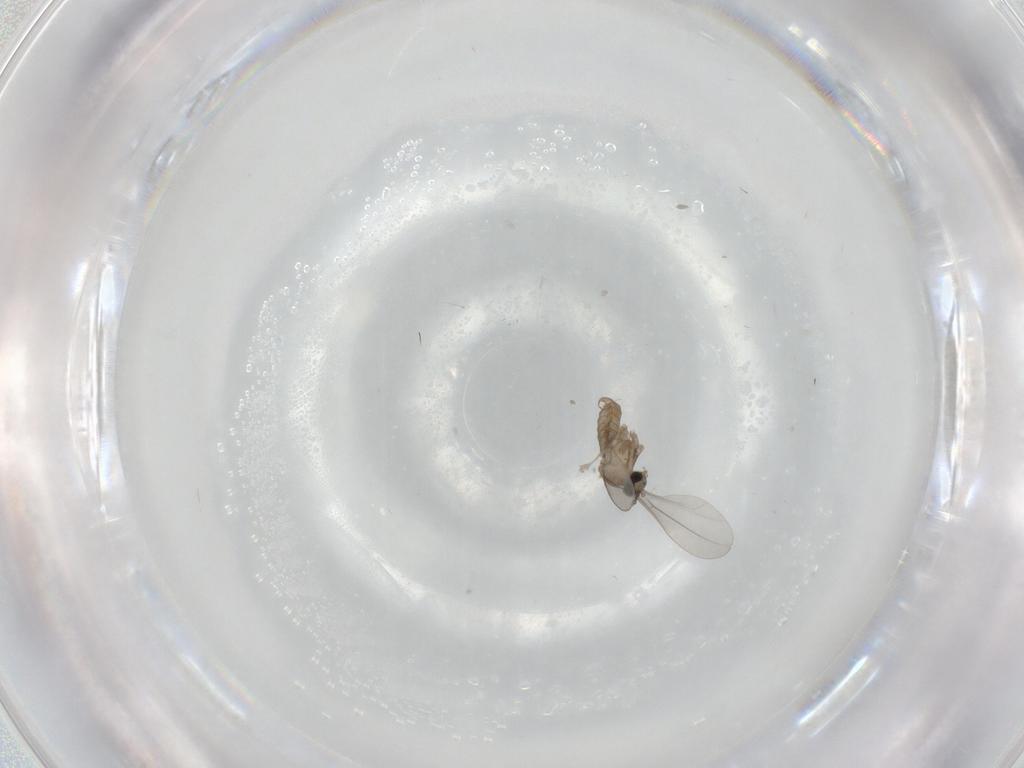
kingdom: Animalia
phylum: Arthropoda
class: Insecta
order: Diptera
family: Cecidomyiidae
